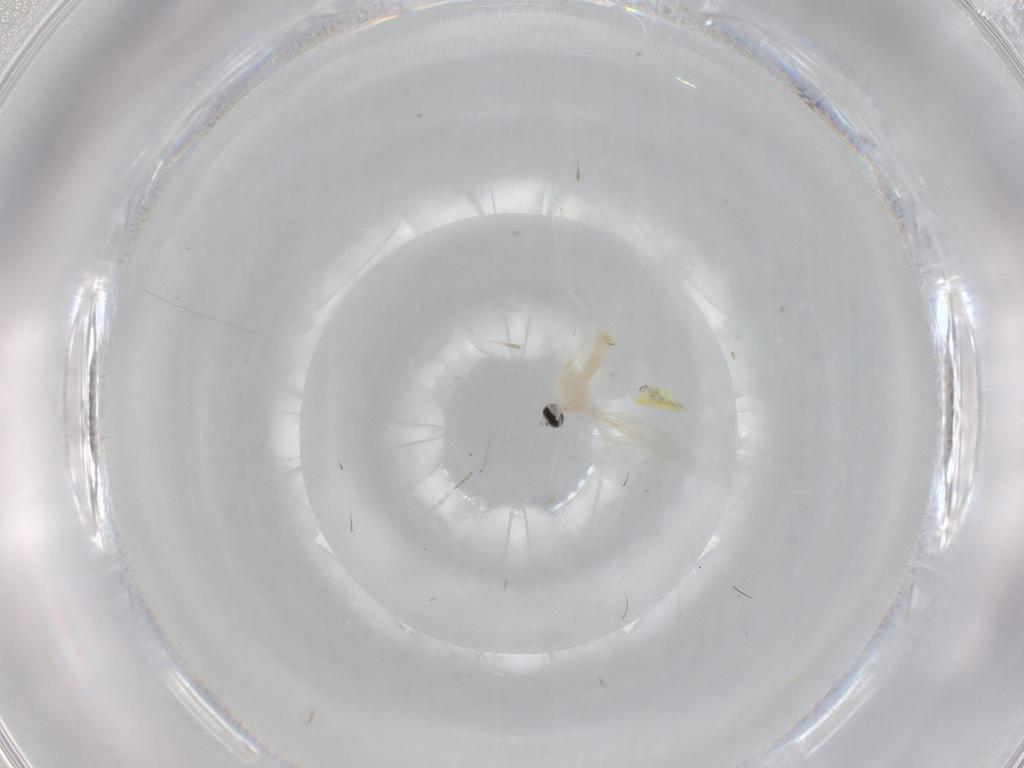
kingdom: Animalia
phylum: Arthropoda
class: Insecta
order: Diptera
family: Cecidomyiidae
